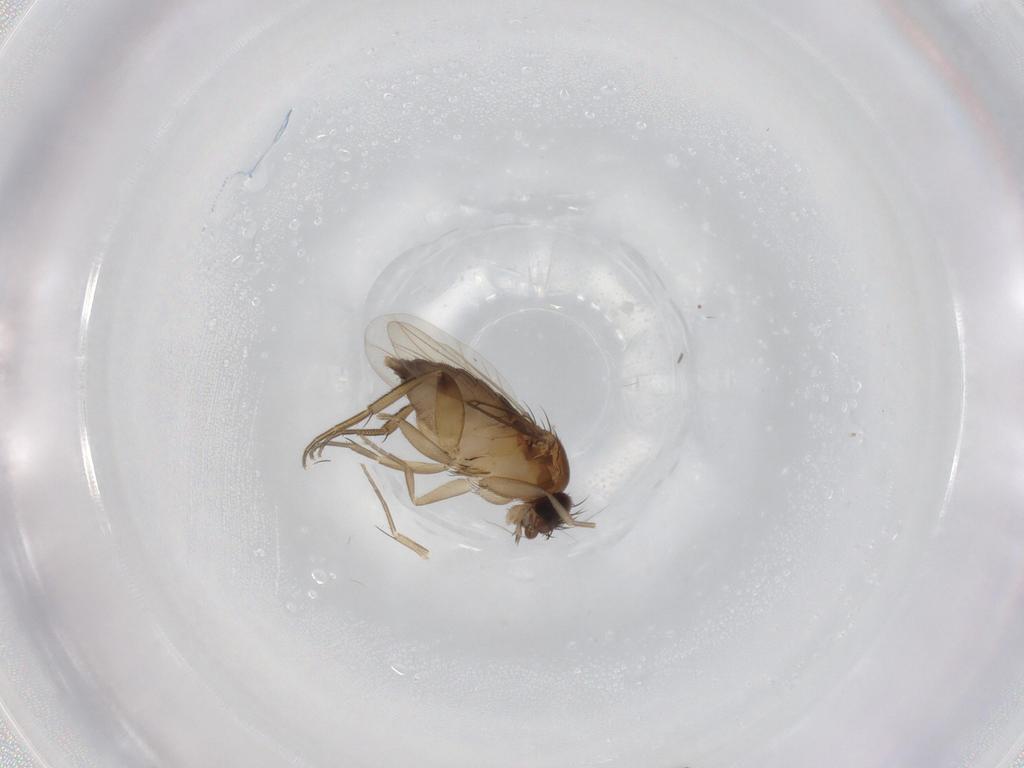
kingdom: Animalia
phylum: Arthropoda
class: Insecta
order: Diptera
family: Phoridae
